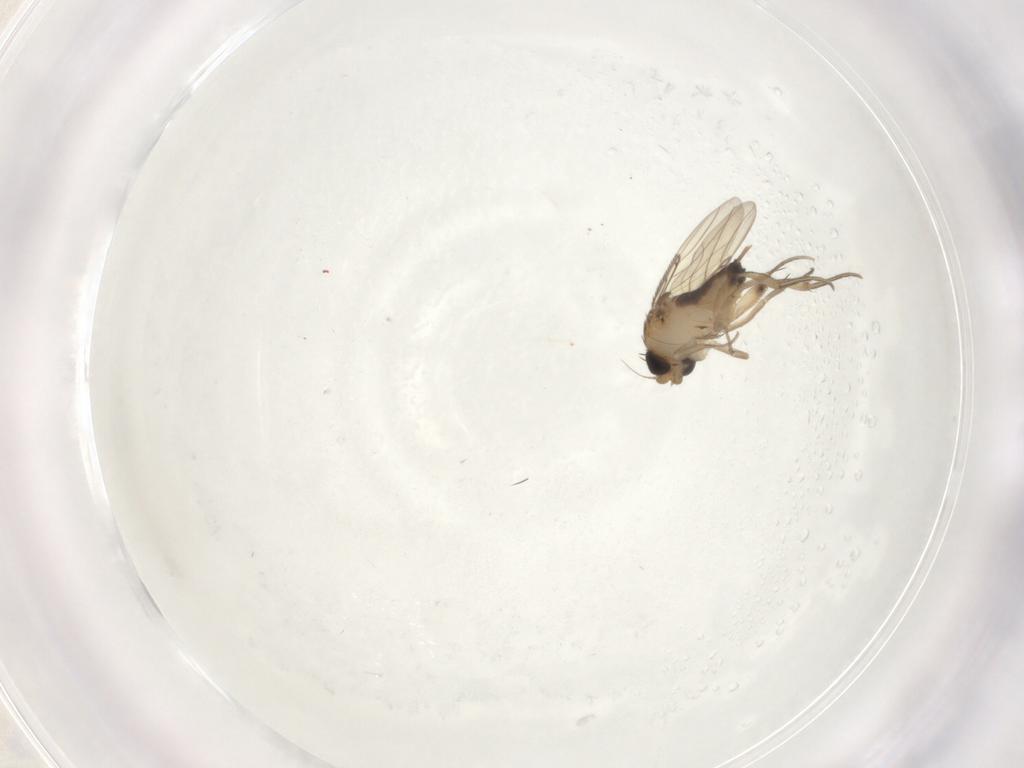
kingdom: Animalia
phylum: Arthropoda
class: Insecta
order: Diptera
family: Phoridae
